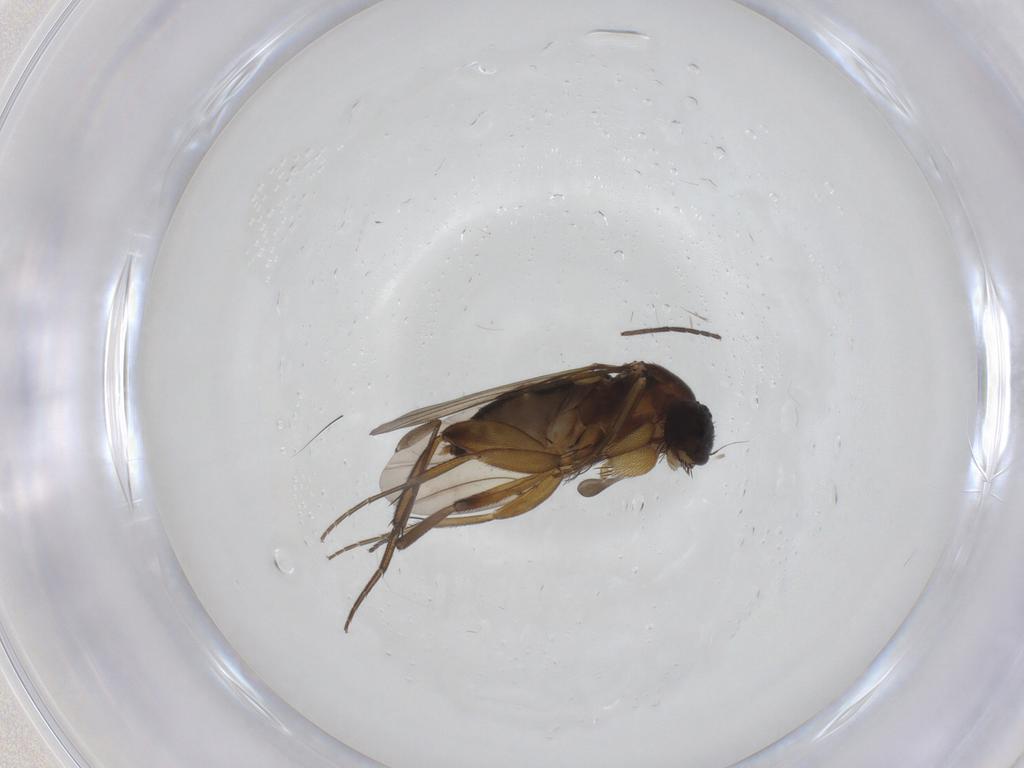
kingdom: Animalia
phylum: Arthropoda
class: Insecta
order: Diptera
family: Phoridae
